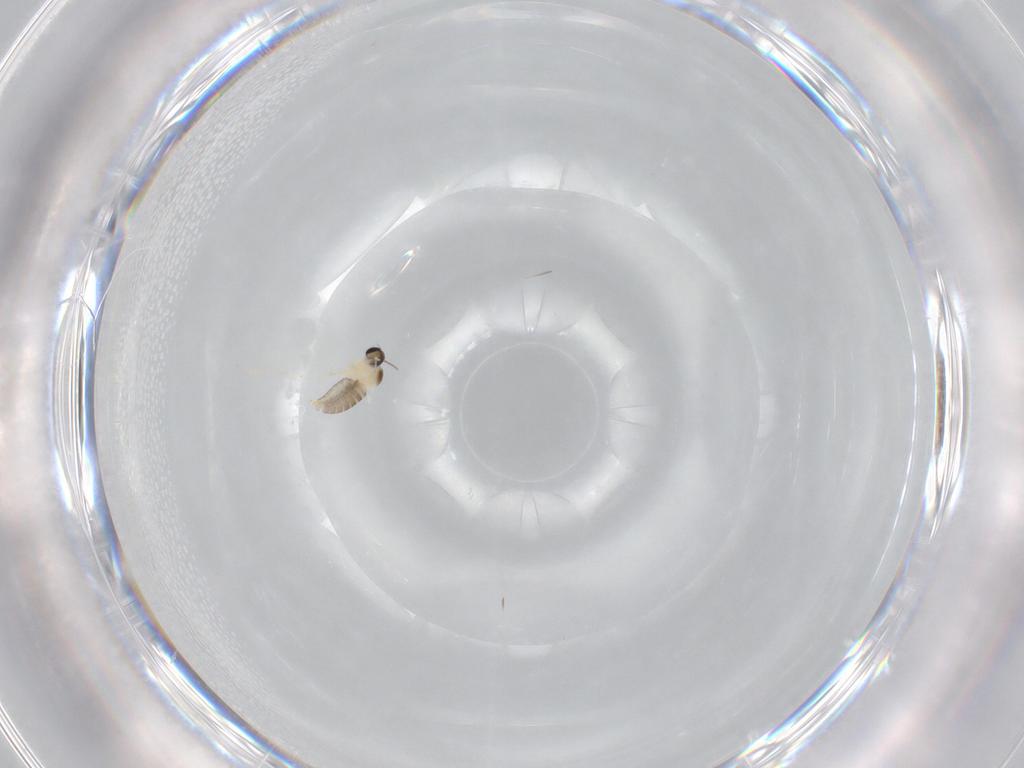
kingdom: Animalia
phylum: Arthropoda
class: Insecta
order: Diptera
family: Cecidomyiidae
